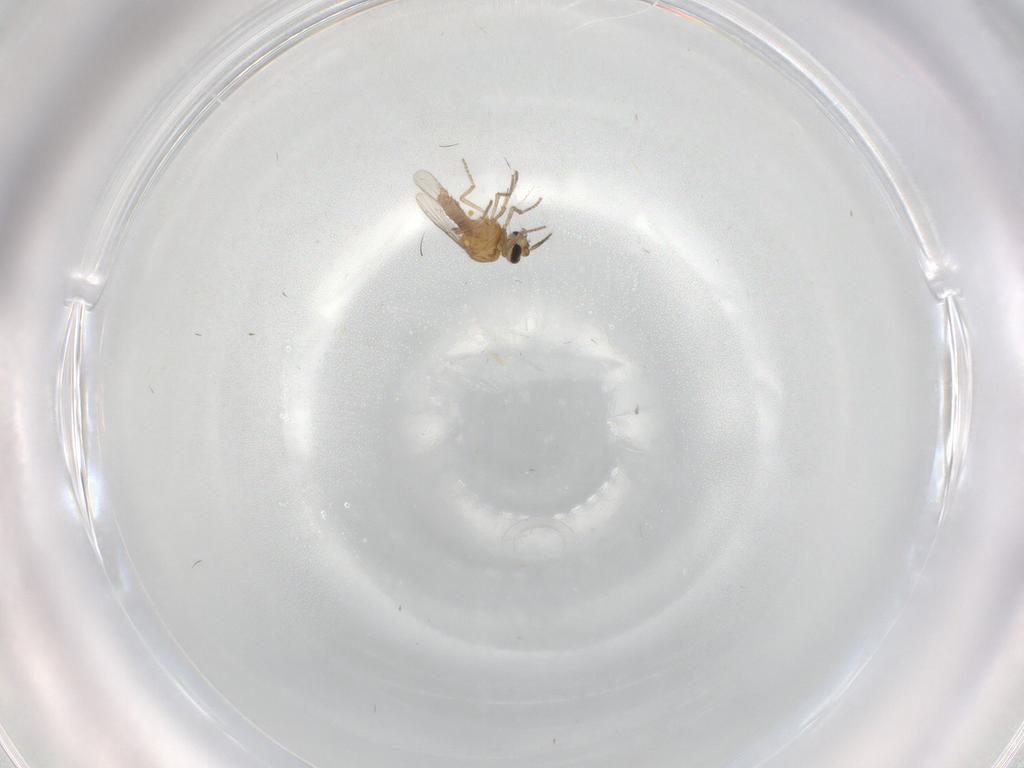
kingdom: Animalia
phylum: Arthropoda
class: Insecta
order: Diptera
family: Ceratopogonidae
